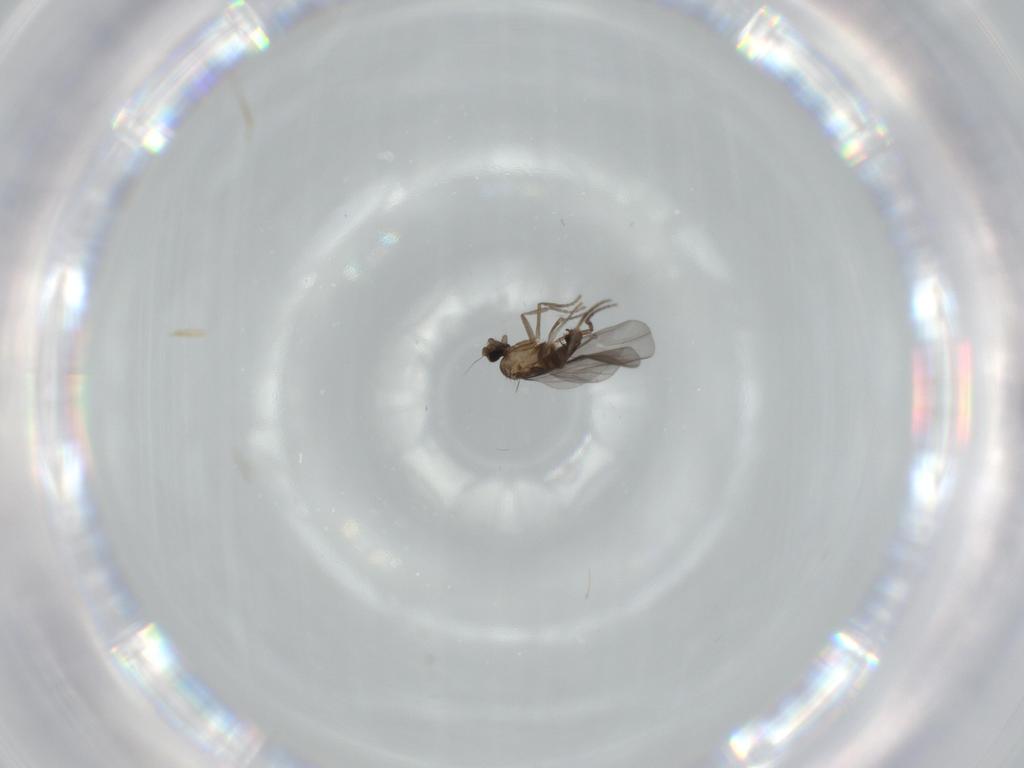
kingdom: Animalia
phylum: Arthropoda
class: Insecta
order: Diptera
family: Phoridae
